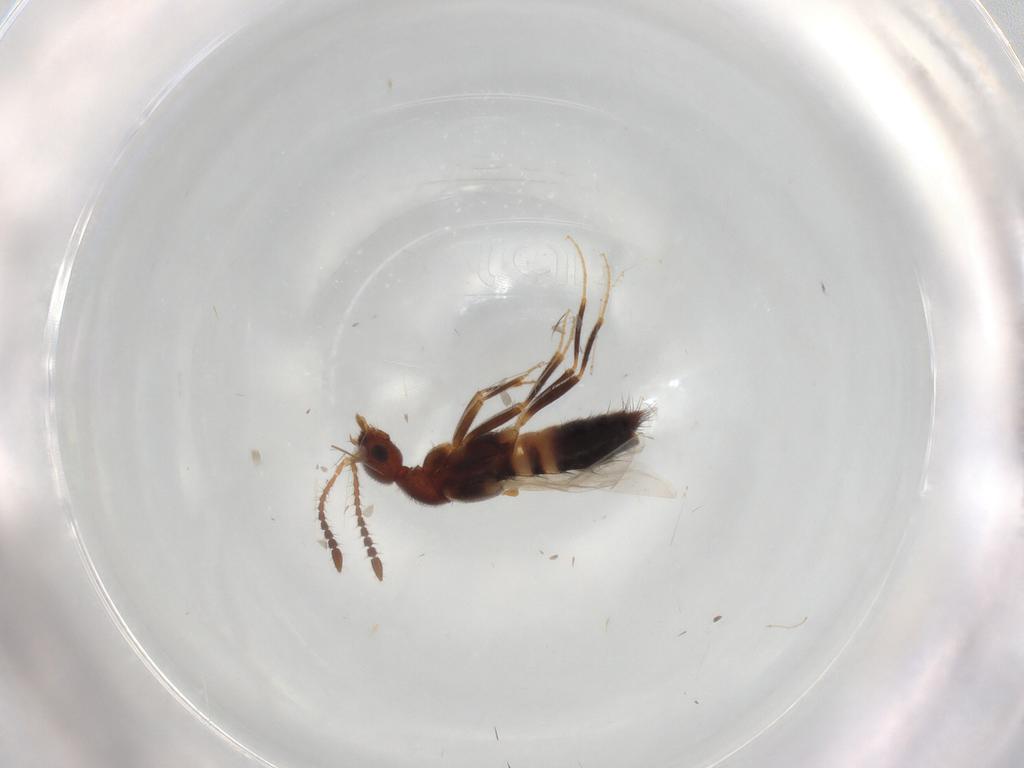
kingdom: Animalia
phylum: Arthropoda
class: Insecta
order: Coleoptera
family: Staphylinidae
